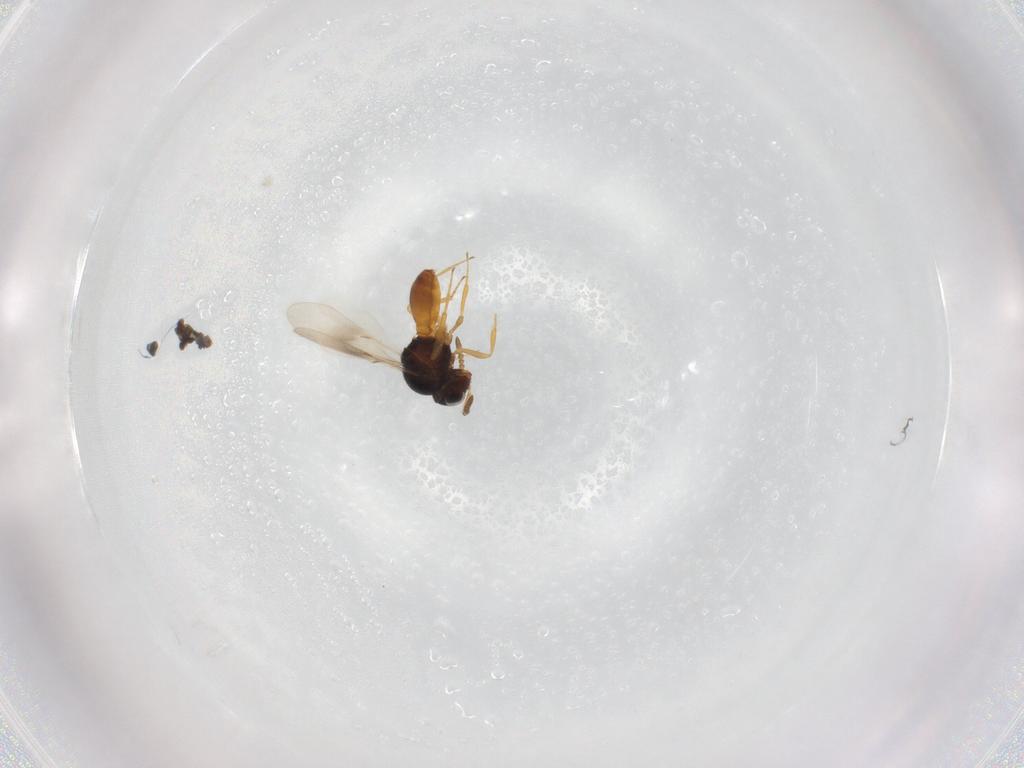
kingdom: Animalia
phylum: Arthropoda
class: Insecta
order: Hymenoptera
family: Scelionidae
